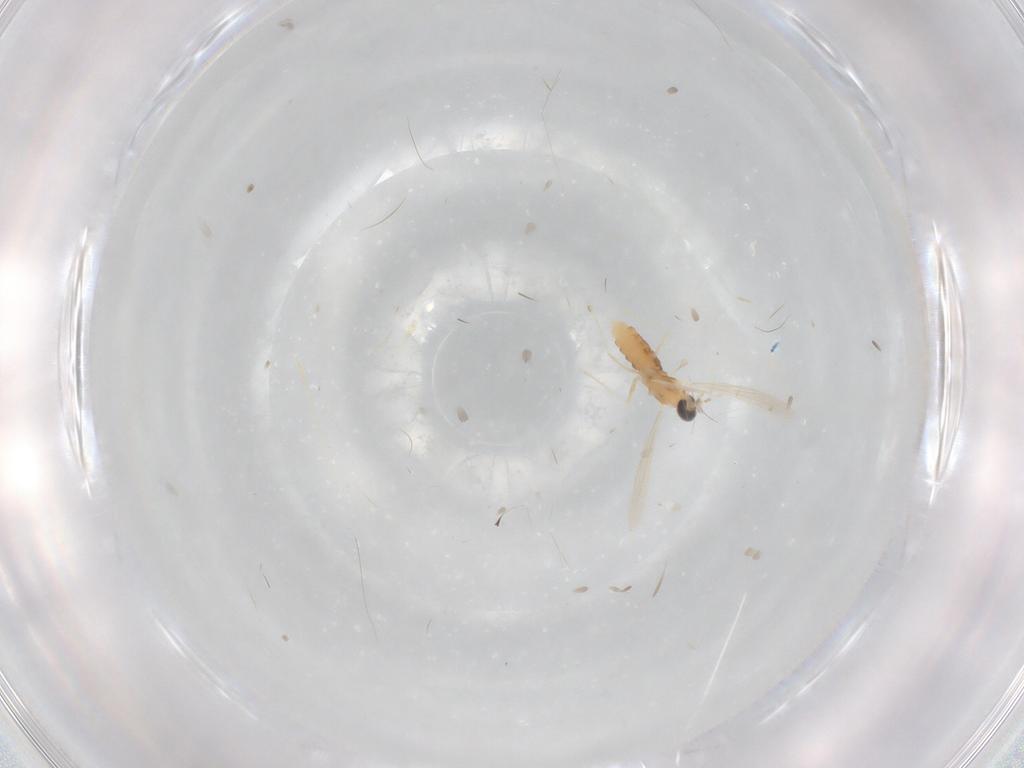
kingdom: Animalia
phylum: Arthropoda
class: Insecta
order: Diptera
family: Cecidomyiidae
